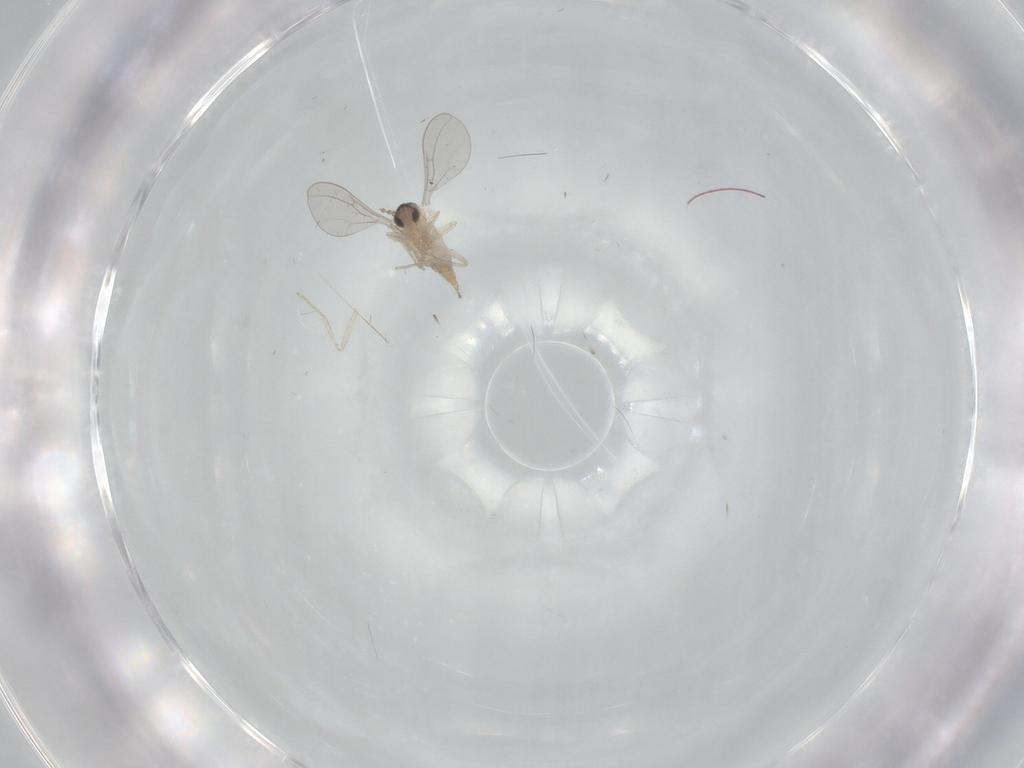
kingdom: Animalia
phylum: Arthropoda
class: Insecta
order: Diptera
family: Cecidomyiidae
